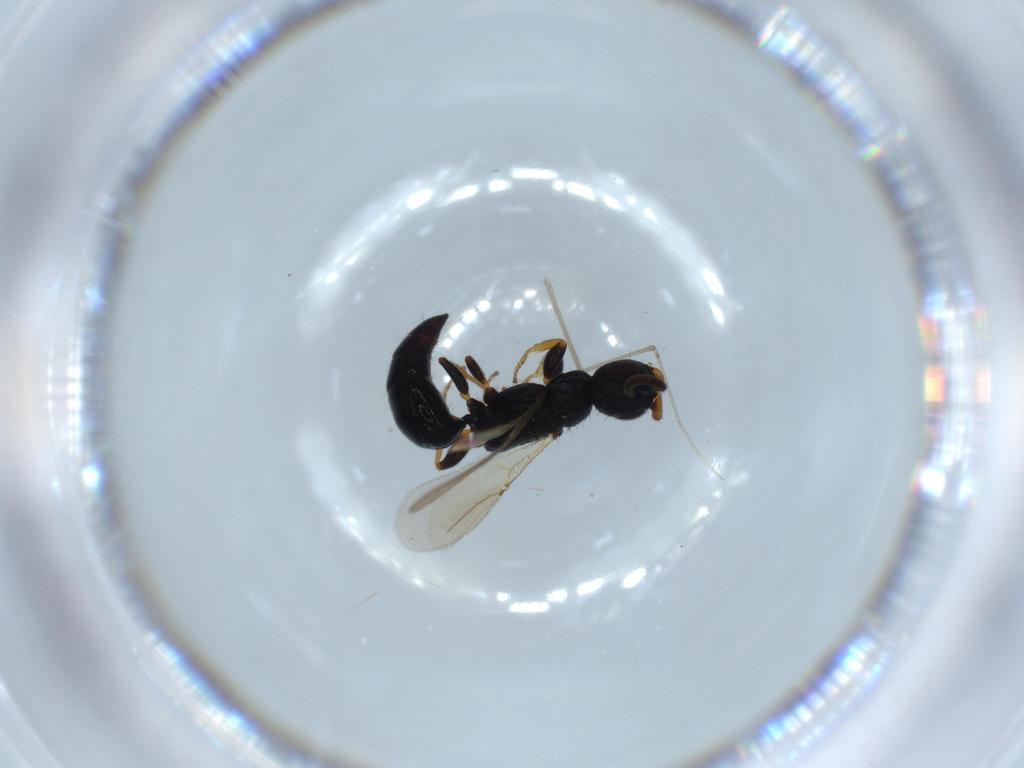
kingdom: Animalia
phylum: Arthropoda
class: Insecta
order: Hymenoptera
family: Bethylidae
